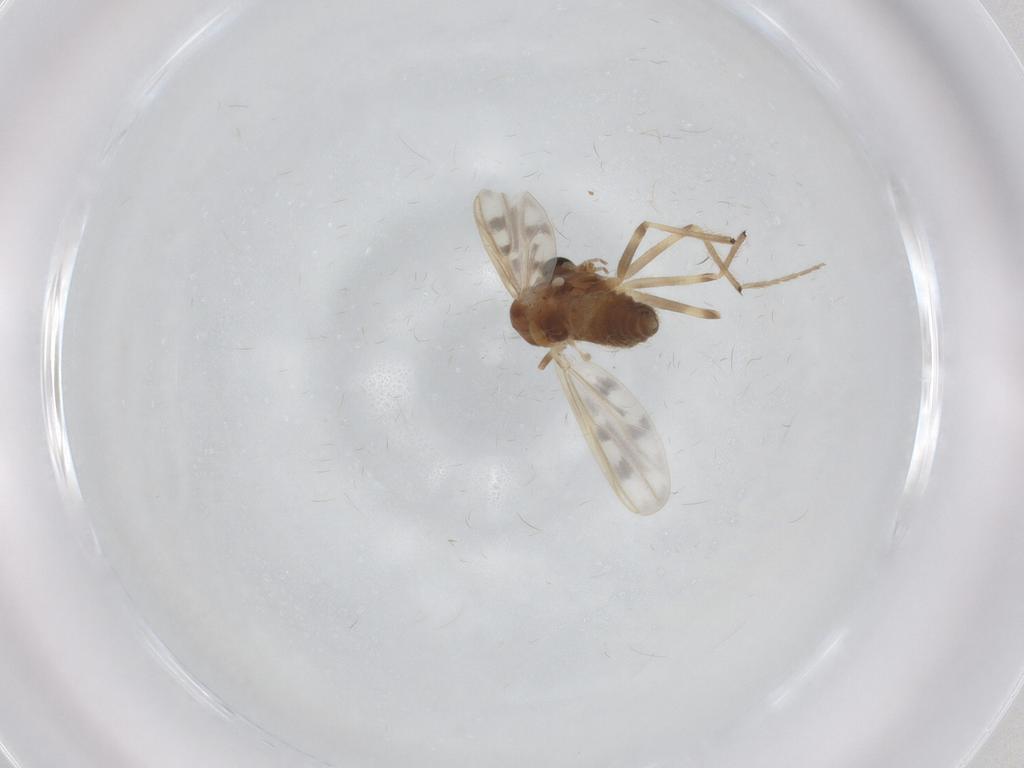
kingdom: Animalia
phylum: Arthropoda
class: Insecta
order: Diptera
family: Chironomidae
